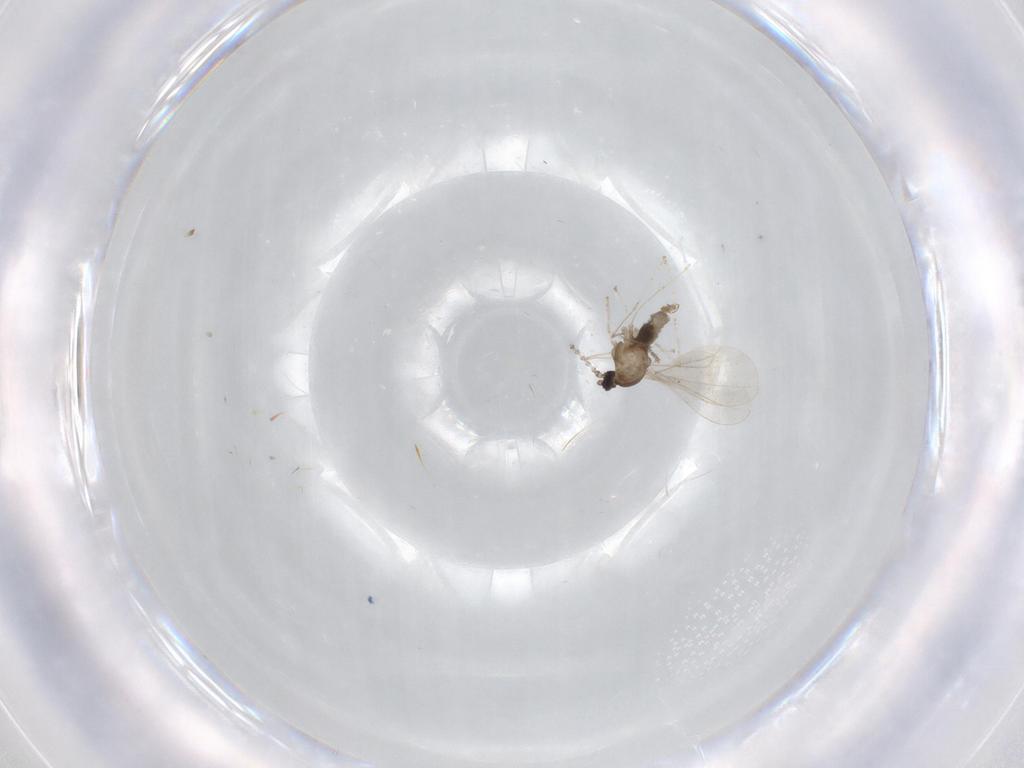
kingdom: Animalia
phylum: Arthropoda
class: Insecta
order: Diptera
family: Cecidomyiidae
